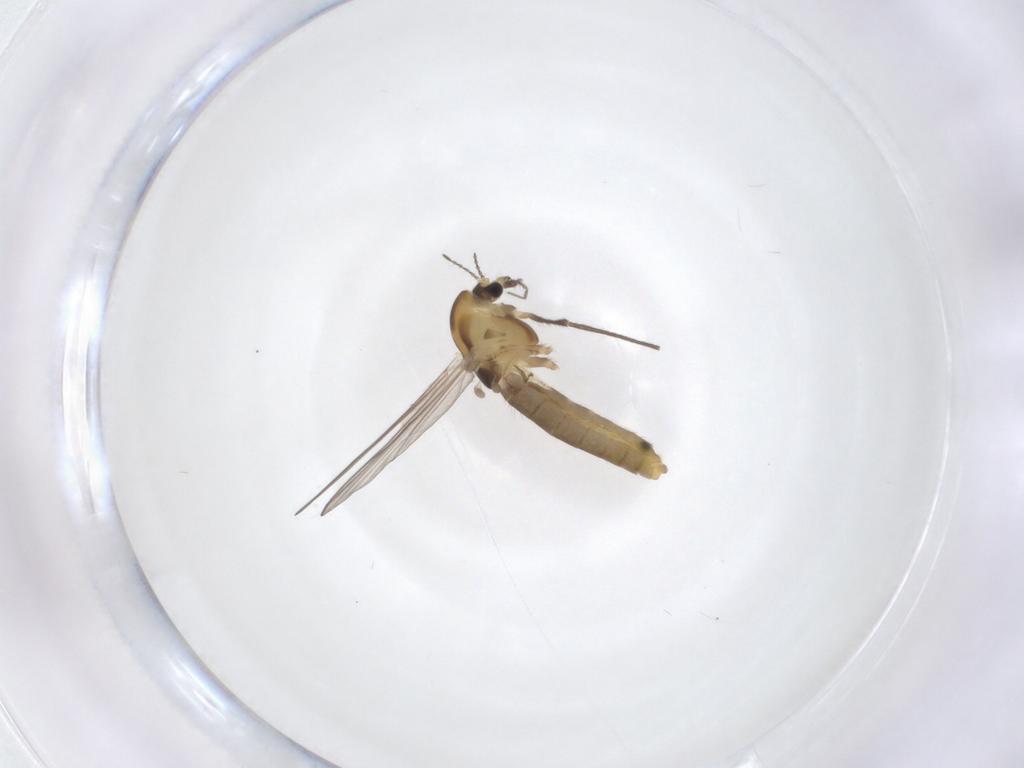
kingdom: Animalia
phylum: Arthropoda
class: Insecta
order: Diptera
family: Chironomidae
